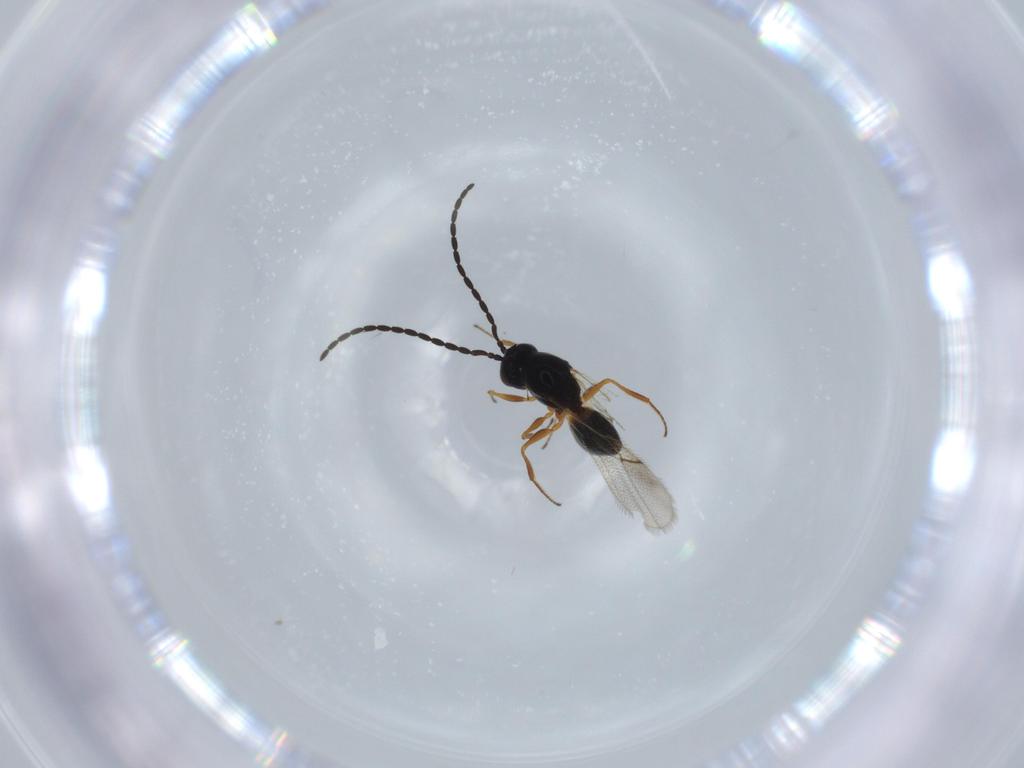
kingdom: Animalia
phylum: Arthropoda
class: Insecta
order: Hymenoptera
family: Figitidae
